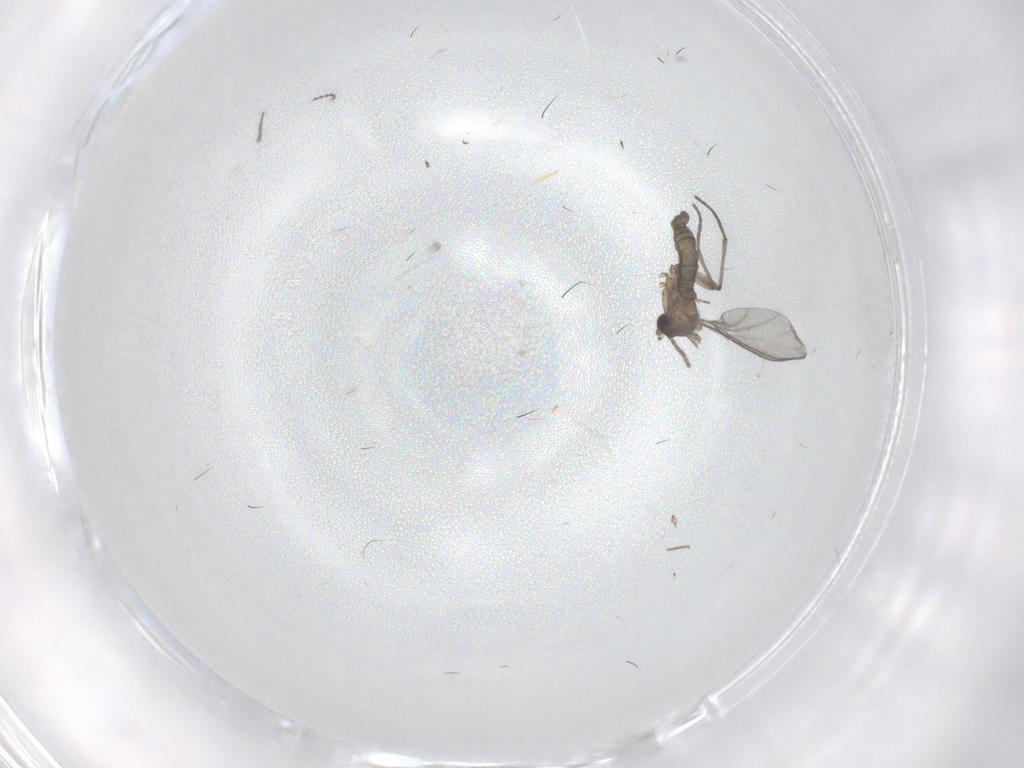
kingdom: Animalia
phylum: Arthropoda
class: Insecta
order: Diptera
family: Sciaridae
